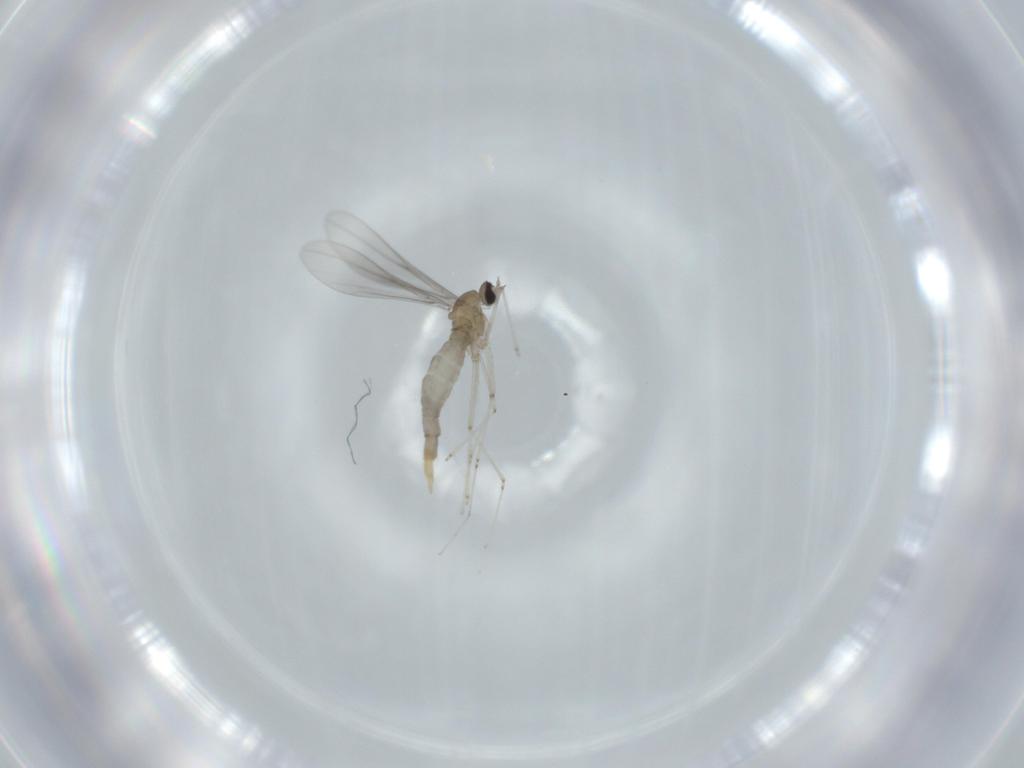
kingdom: Animalia
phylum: Arthropoda
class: Insecta
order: Diptera
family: Cecidomyiidae
